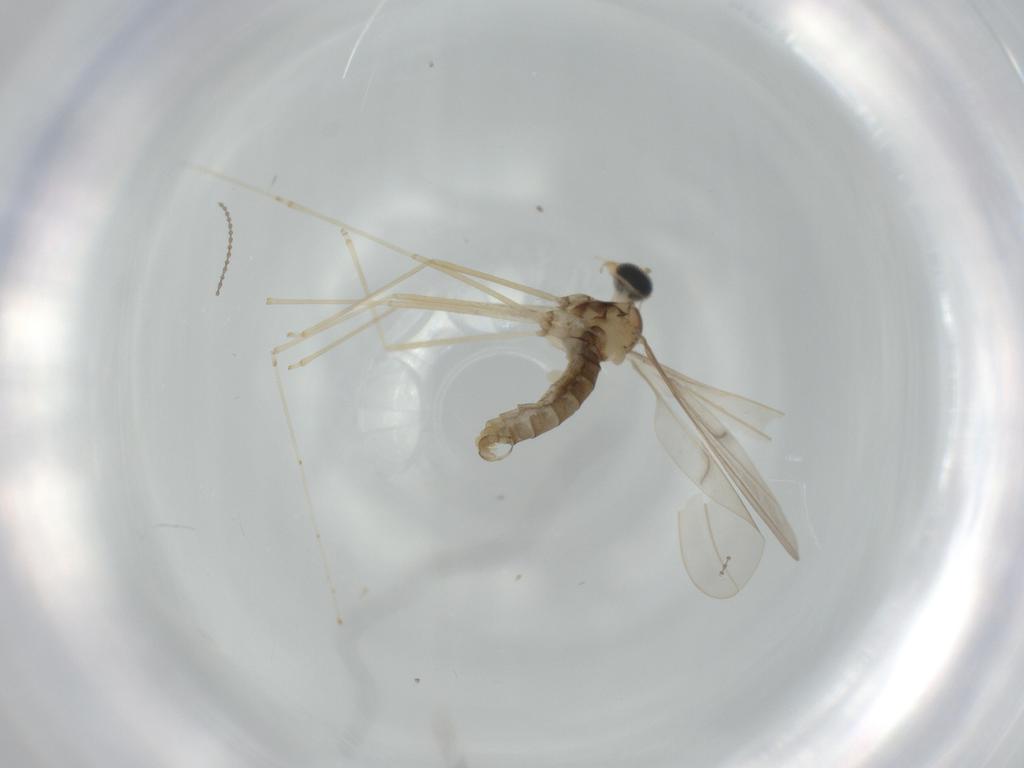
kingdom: Animalia
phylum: Arthropoda
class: Insecta
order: Diptera
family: Cecidomyiidae
